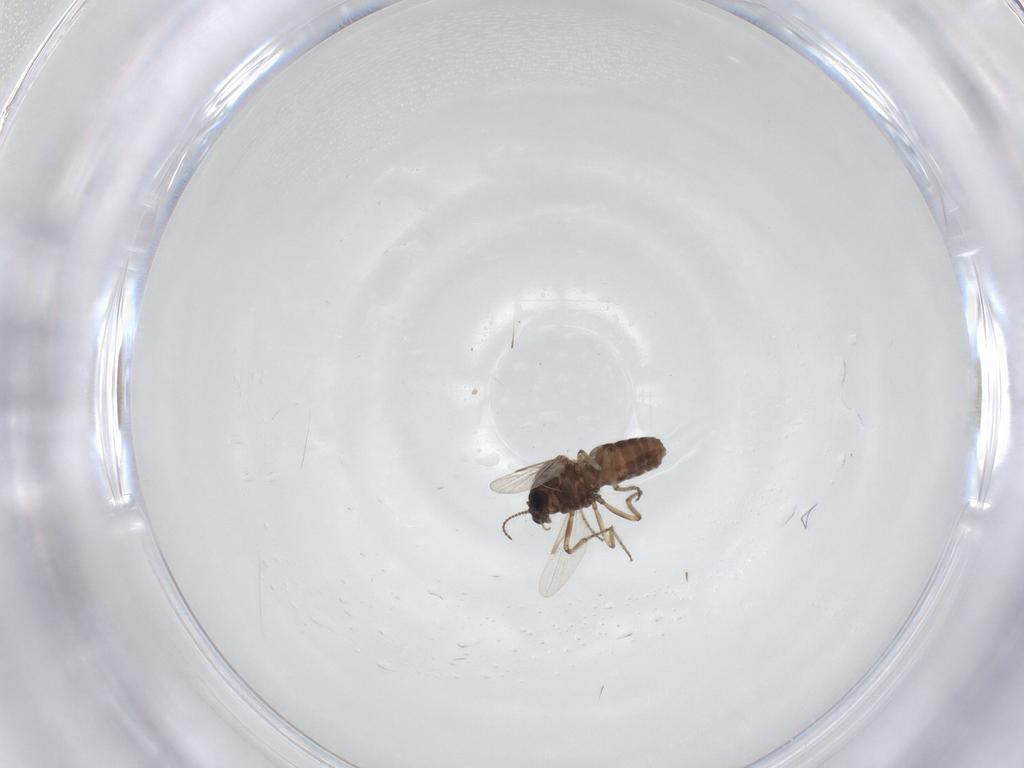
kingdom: Animalia
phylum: Arthropoda
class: Insecta
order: Diptera
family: Ceratopogonidae
